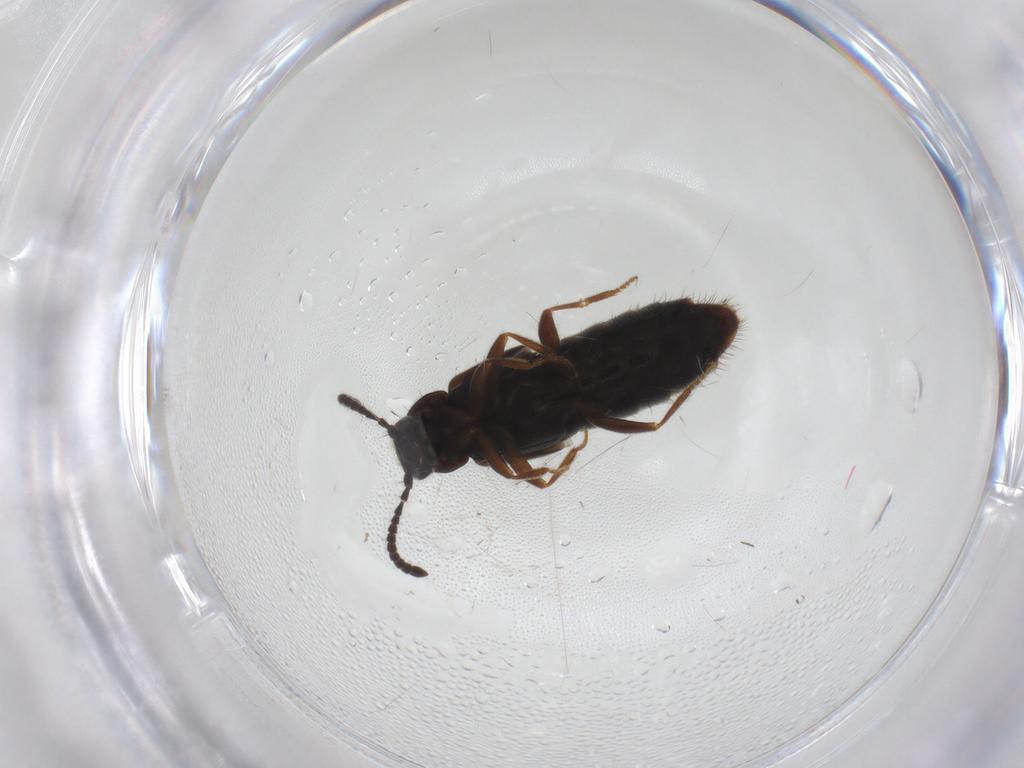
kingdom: Animalia
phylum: Arthropoda
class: Insecta
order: Coleoptera
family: Staphylinidae
